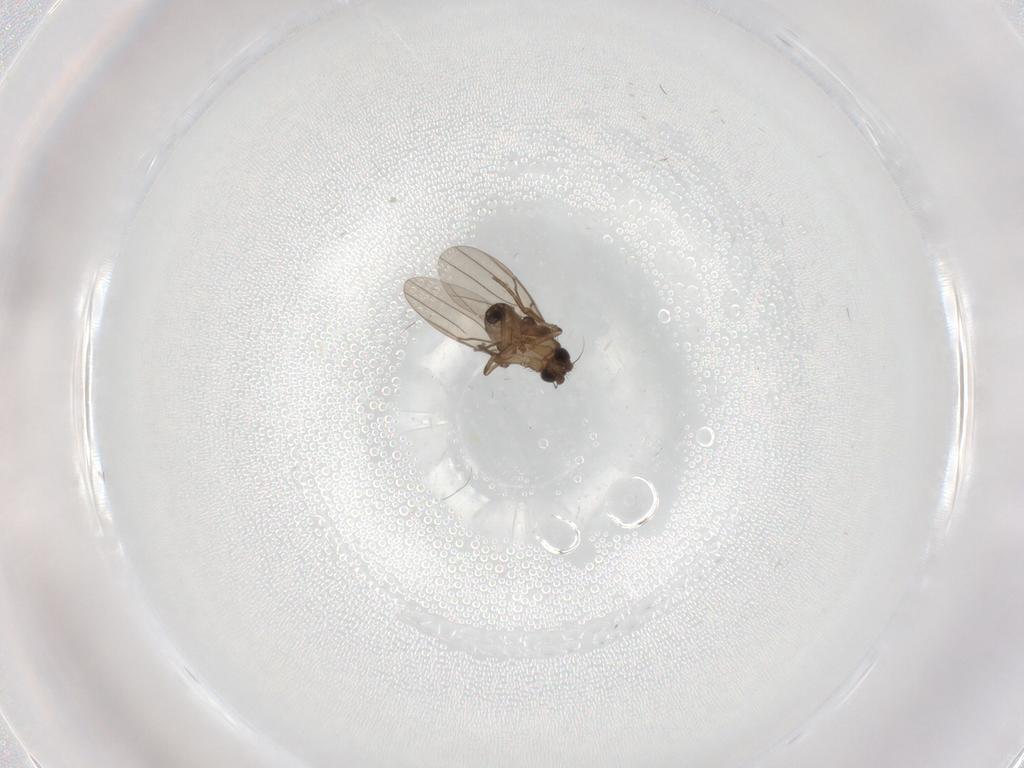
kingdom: Animalia
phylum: Arthropoda
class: Insecta
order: Diptera
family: Phoridae
